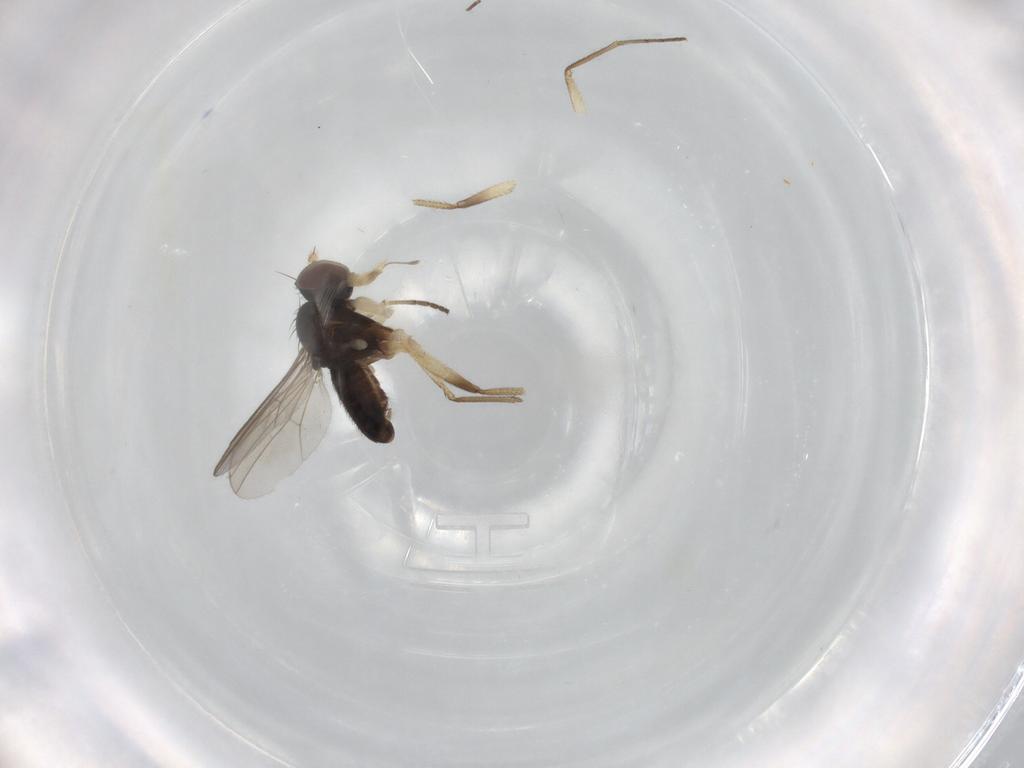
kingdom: Animalia
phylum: Arthropoda
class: Insecta
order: Diptera
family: Dolichopodidae
